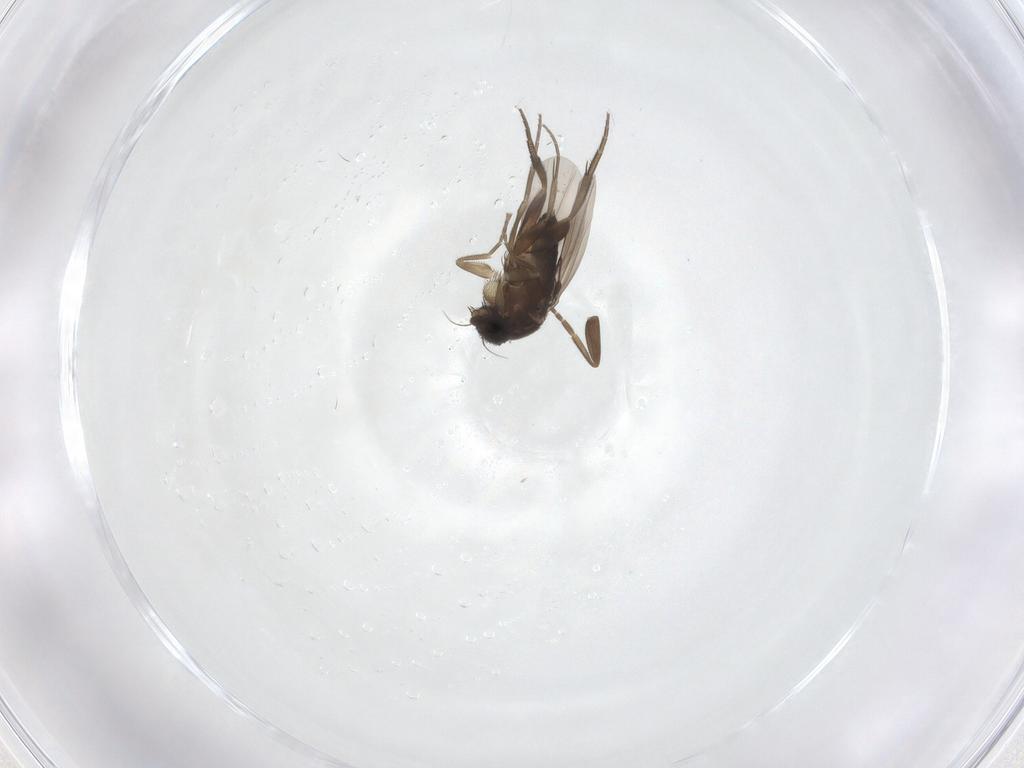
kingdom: Animalia
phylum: Arthropoda
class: Insecta
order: Diptera
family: Phoridae
